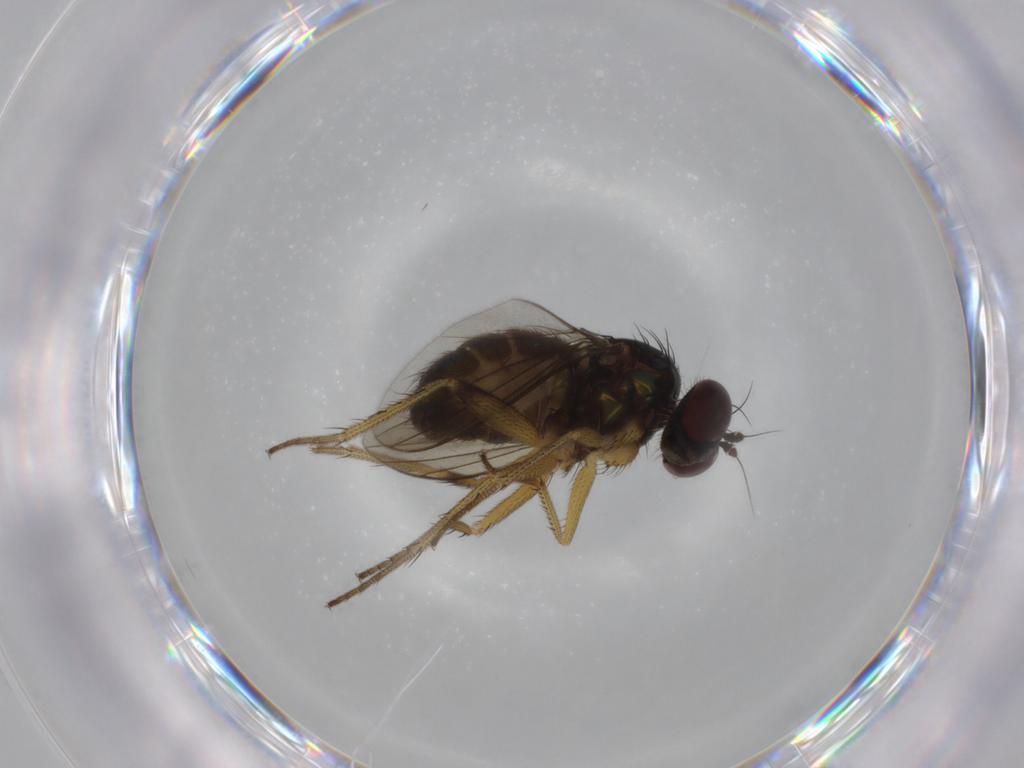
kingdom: Animalia
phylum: Arthropoda
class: Insecta
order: Diptera
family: Dolichopodidae
